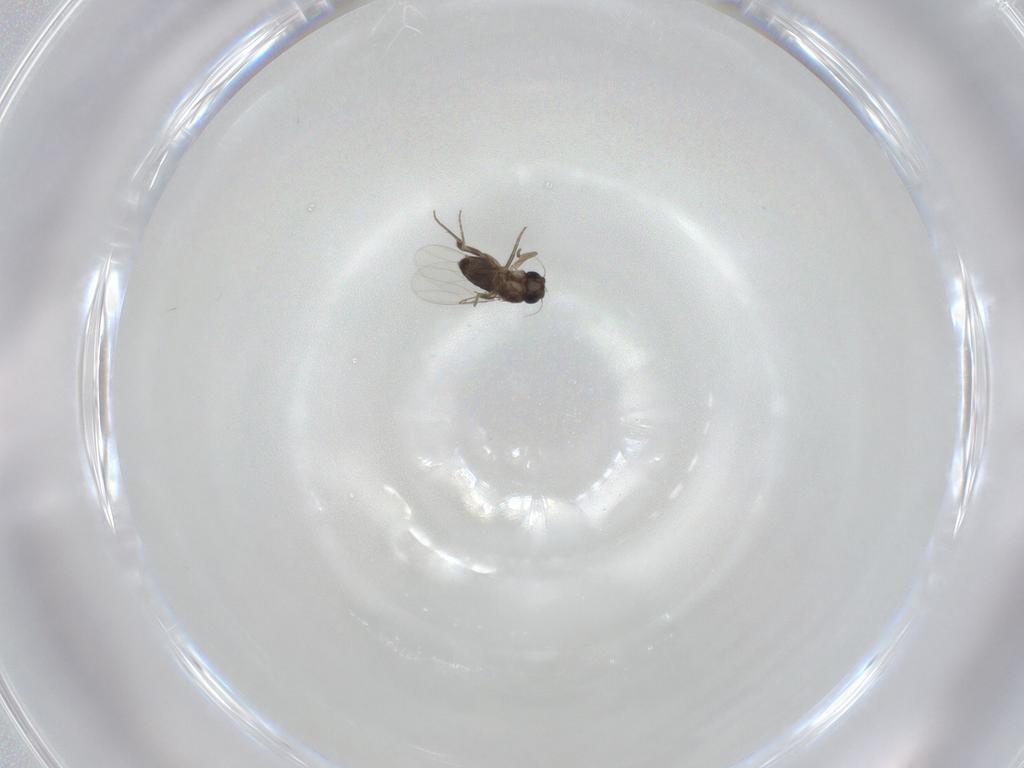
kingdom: Animalia
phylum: Arthropoda
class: Insecta
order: Diptera
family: Phoridae
